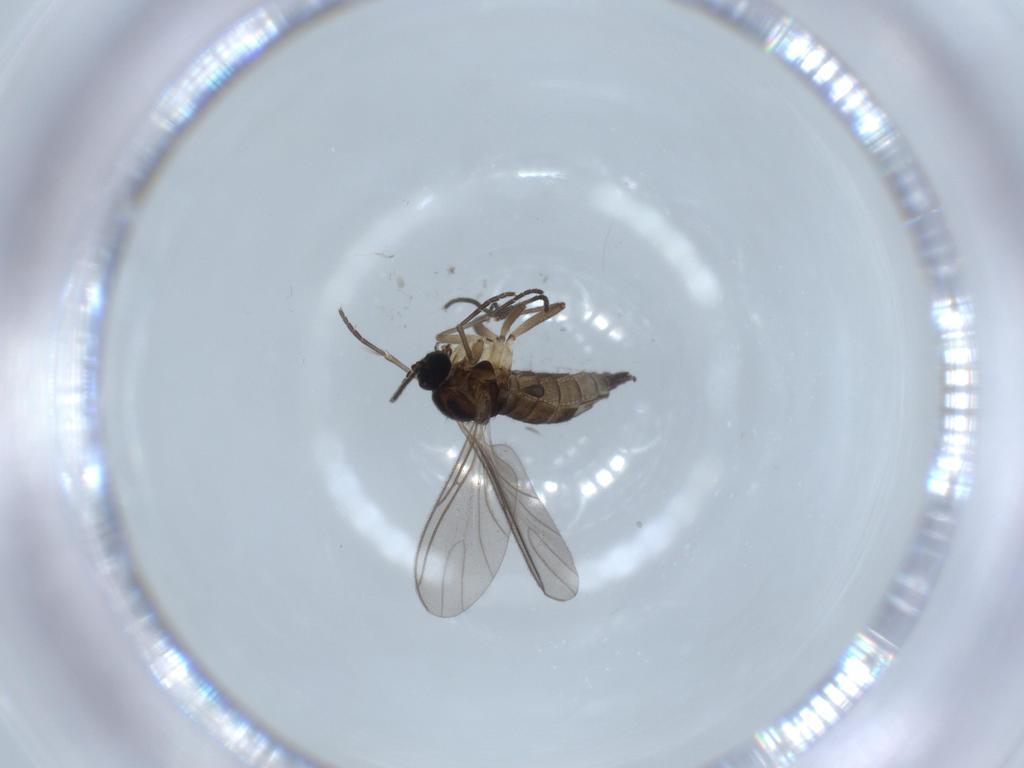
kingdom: Animalia
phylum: Arthropoda
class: Insecta
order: Diptera
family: Sciaridae
